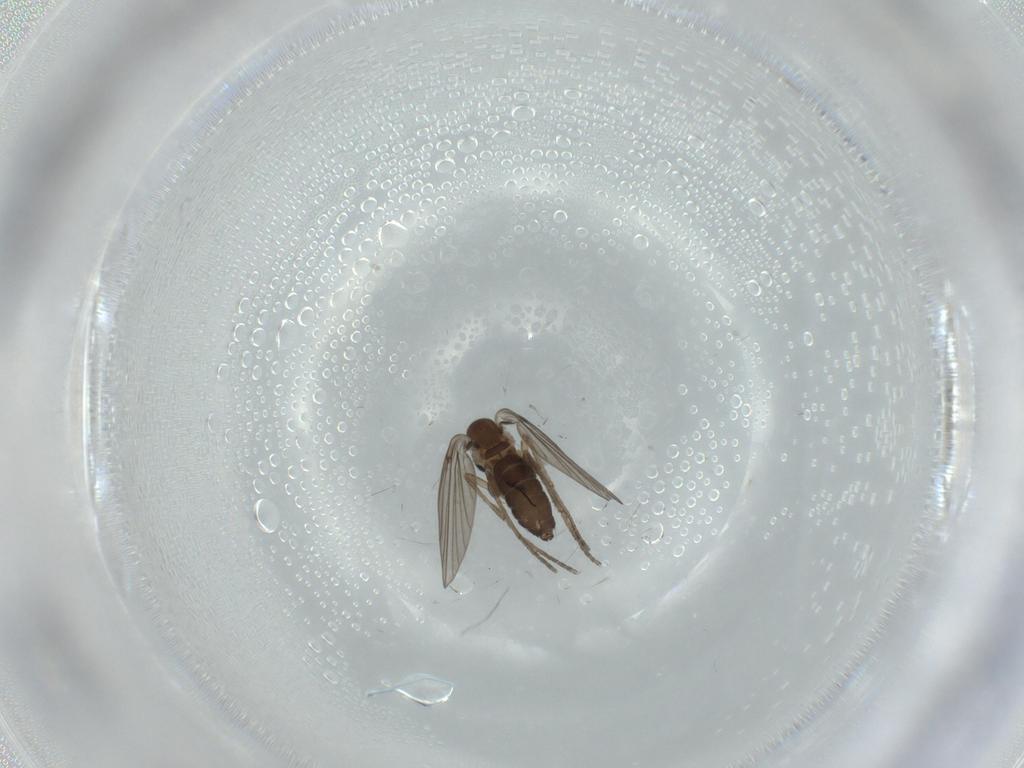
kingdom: Animalia
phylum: Arthropoda
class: Insecta
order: Diptera
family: Psychodidae
